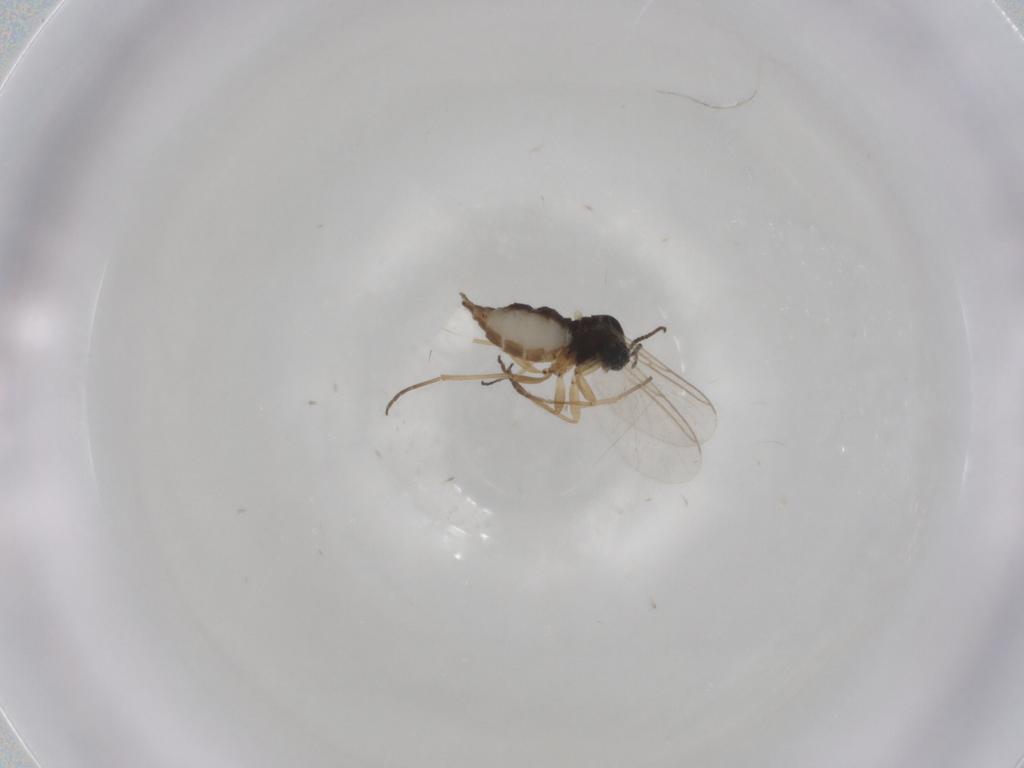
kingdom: Animalia
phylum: Arthropoda
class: Insecta
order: Diptera
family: Sciaridae
